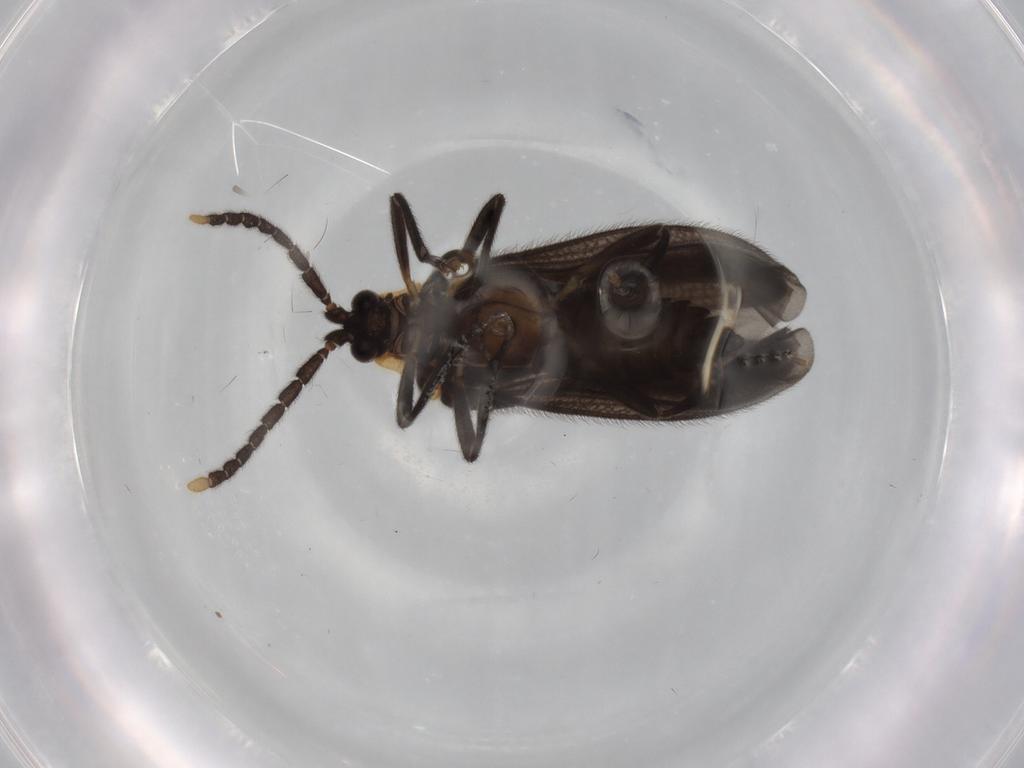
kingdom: Animalia
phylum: Arthropoda
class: Insecta
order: Coleoptera
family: Lycidae
